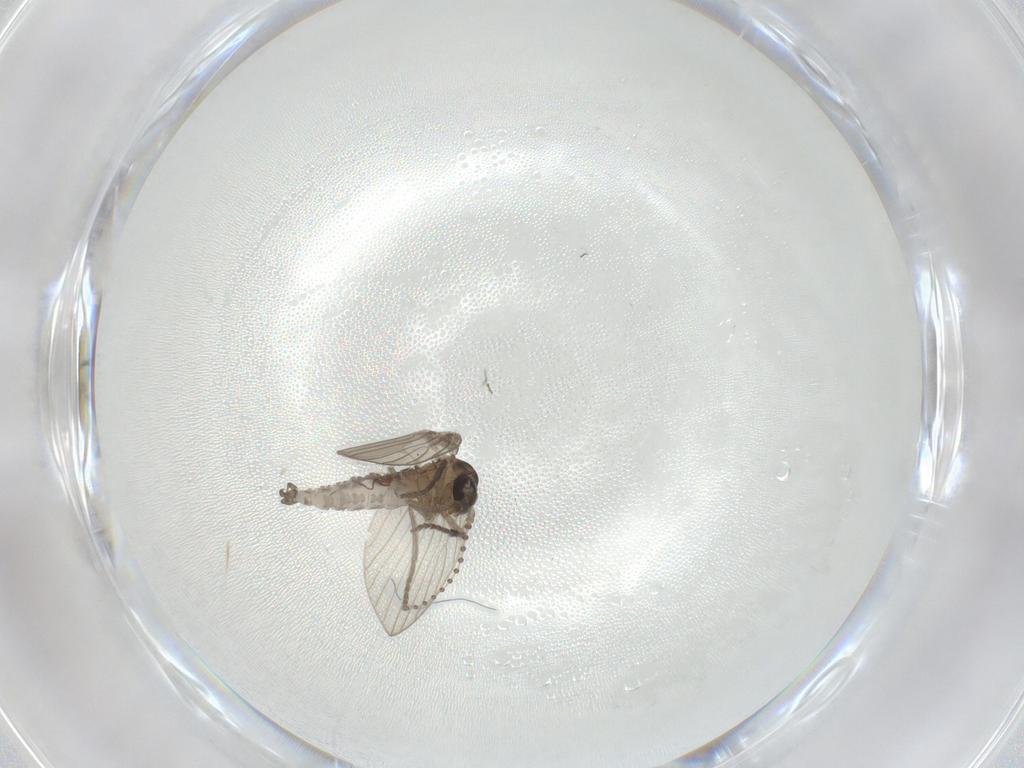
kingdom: Animalia
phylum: Arthropoda
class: Insecta
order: Diptera
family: Psychodidae
